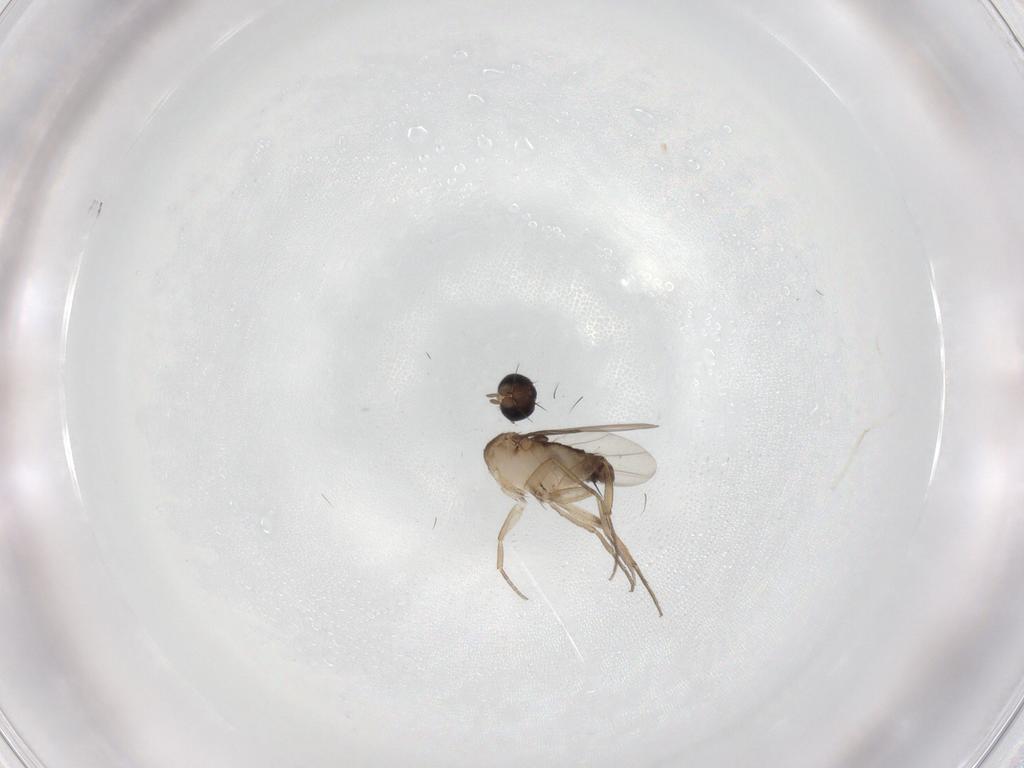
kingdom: Animalia
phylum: Arthropoda
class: Insecta
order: Diptera
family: Phoridae
